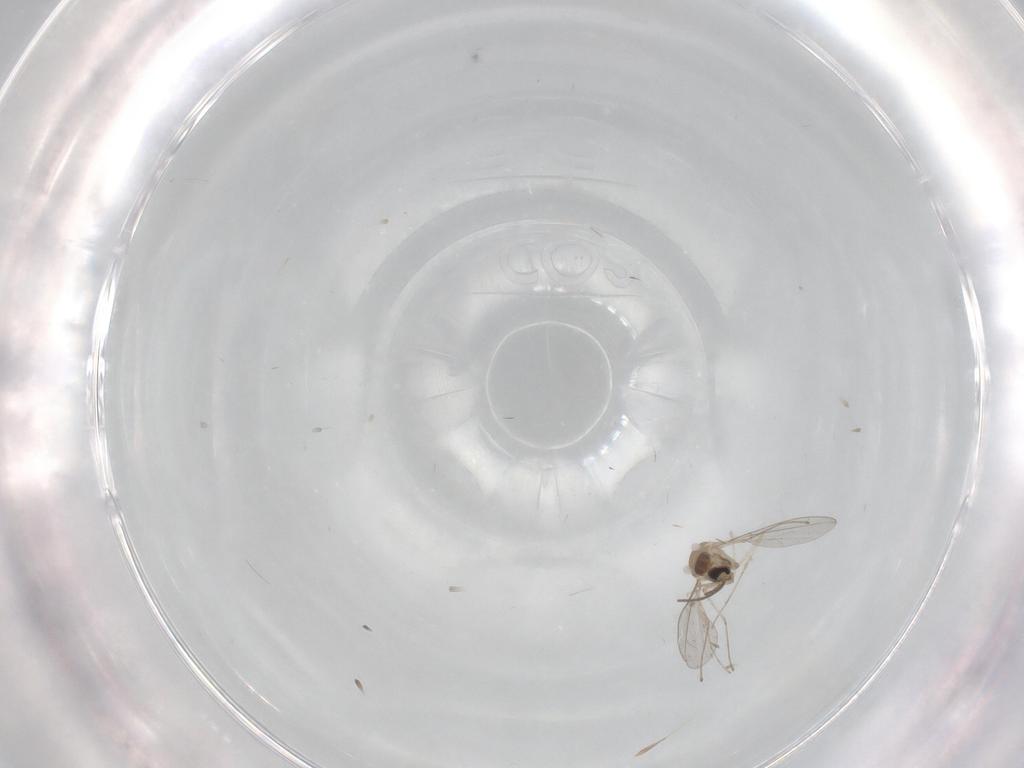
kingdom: Animalia
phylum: Arthropoda
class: Insecta
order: Diptera
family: Cecidomyiidae
